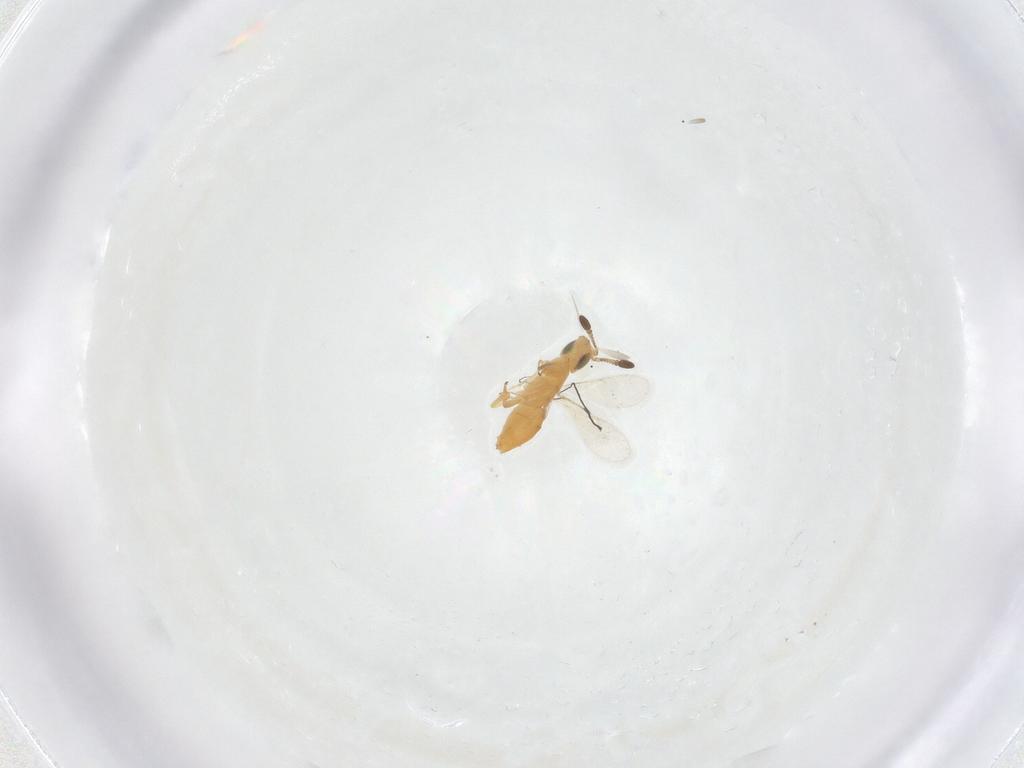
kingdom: Animalia
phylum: Arthropoda
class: Insecta
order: Hymenoptera
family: Encyrtidae
